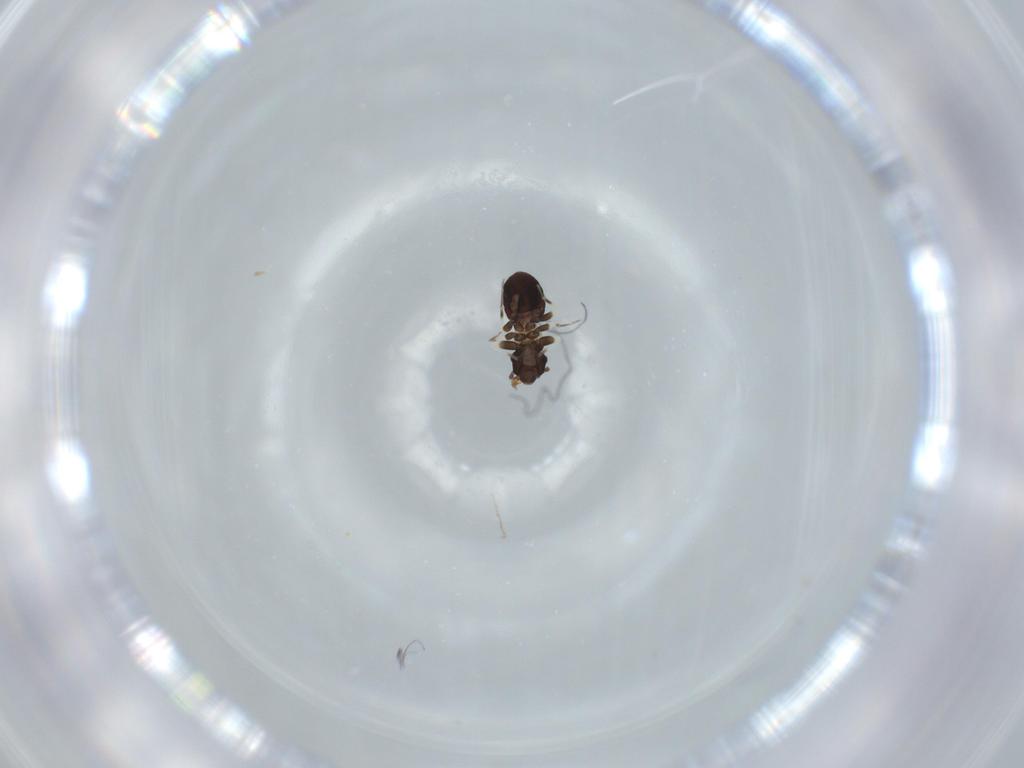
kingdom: Animalia
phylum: Arthropoda
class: Insecta
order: Psocodea
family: Lepidopsocidae
